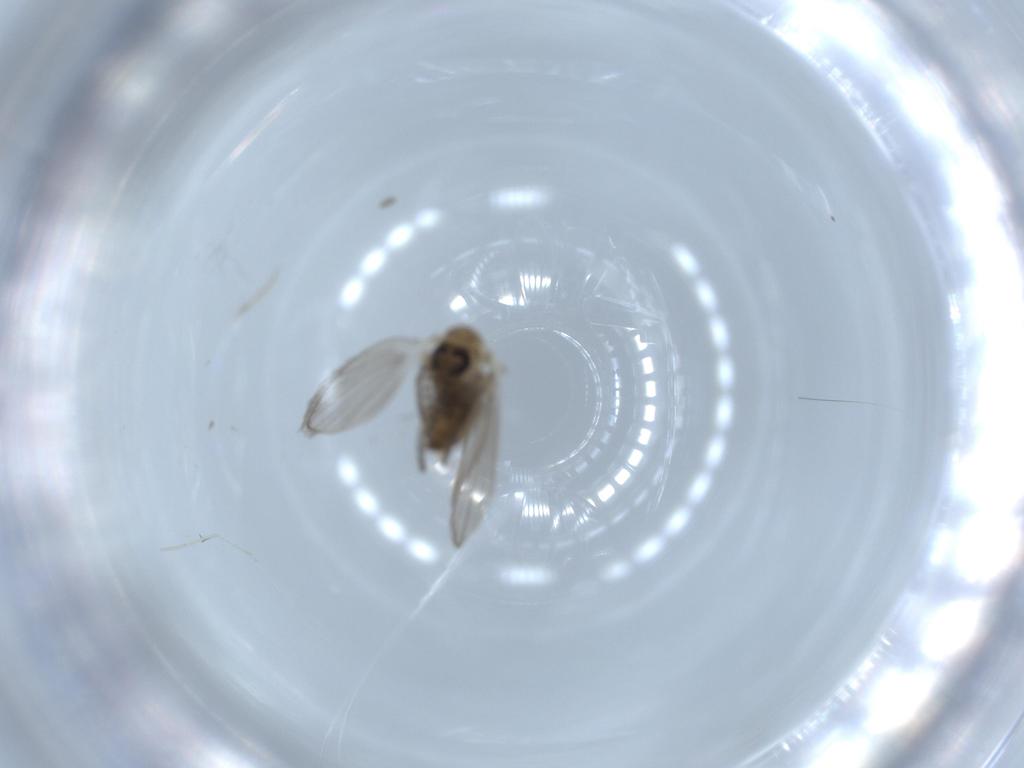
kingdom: Animalia
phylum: Arthropoda
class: Insecta
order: Diptera
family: Psychodidae
